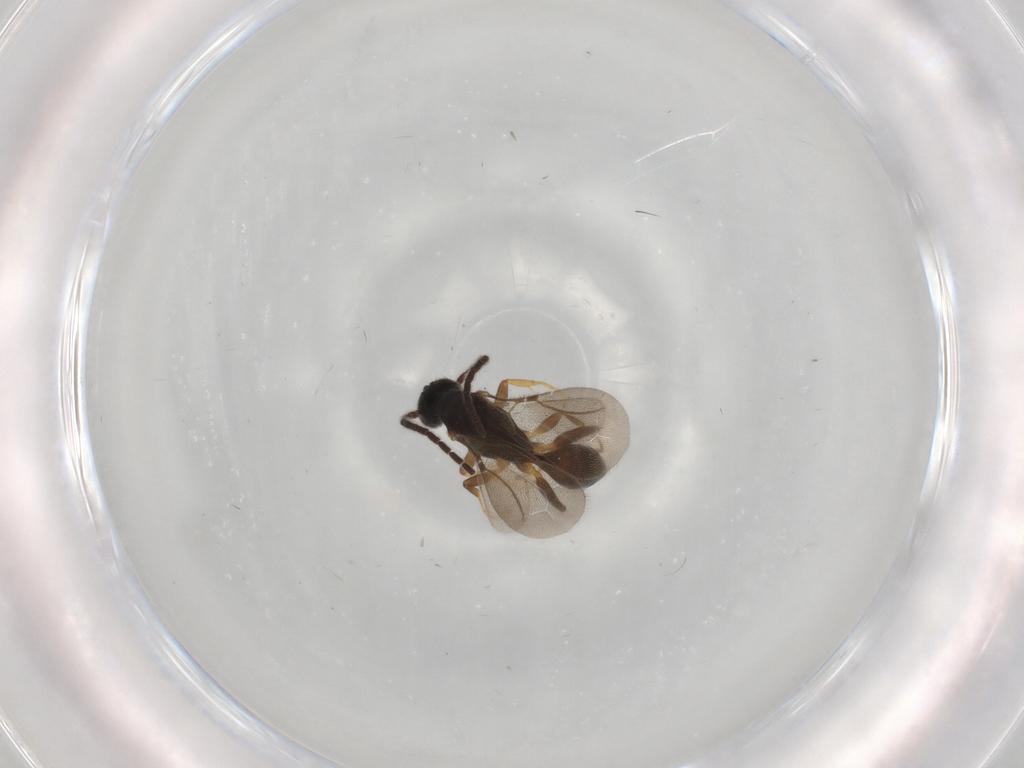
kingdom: Animalia
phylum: Arthropoda
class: Insecta
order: Hymenoptera
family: Bethylidae
